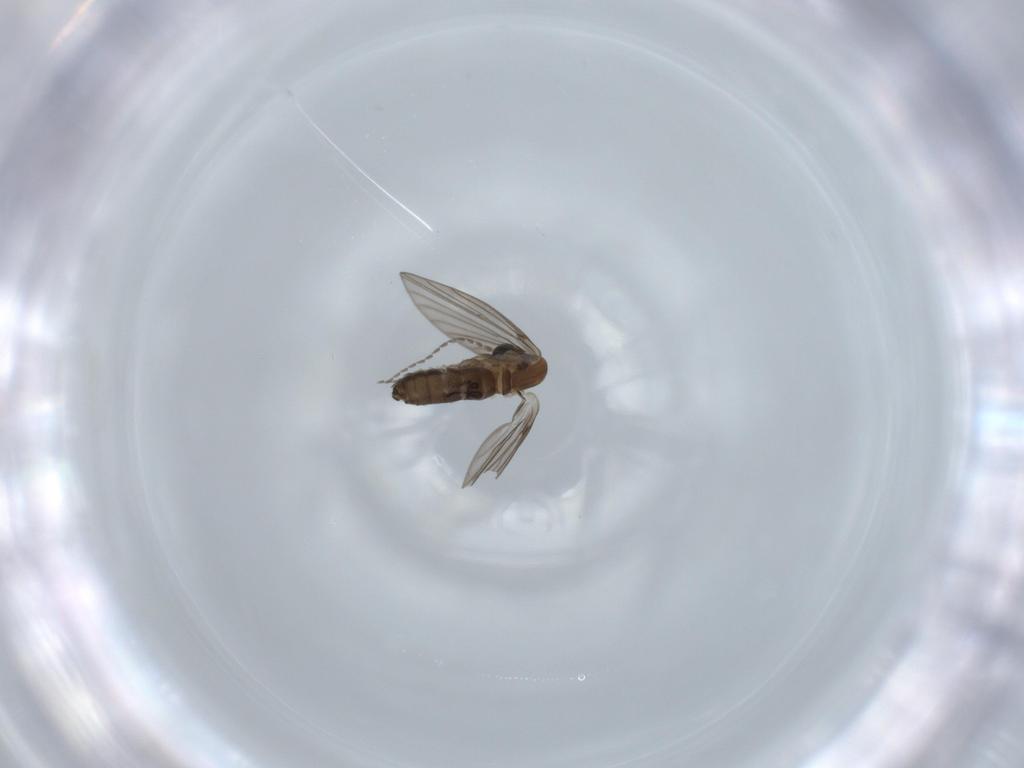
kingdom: Animalia
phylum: Arthropoda
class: Insecta
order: Diptera
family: Psychodidae
